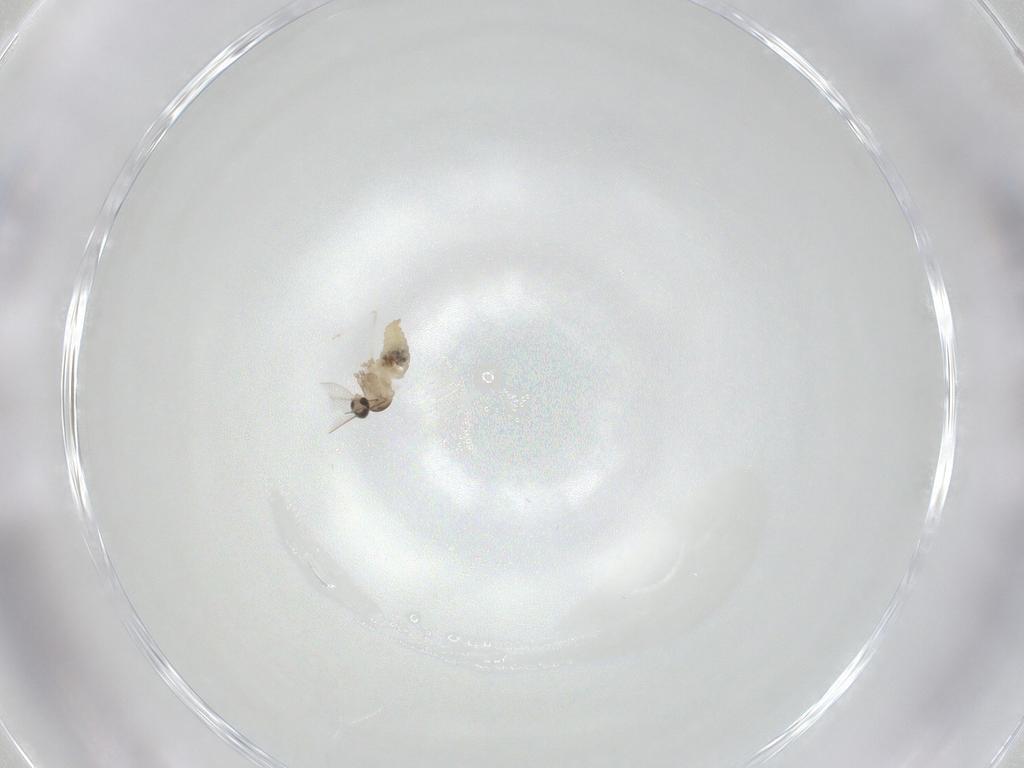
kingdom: Animalia
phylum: Arthropoda
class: Insecta
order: Diptera
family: Cecidomyiidae
